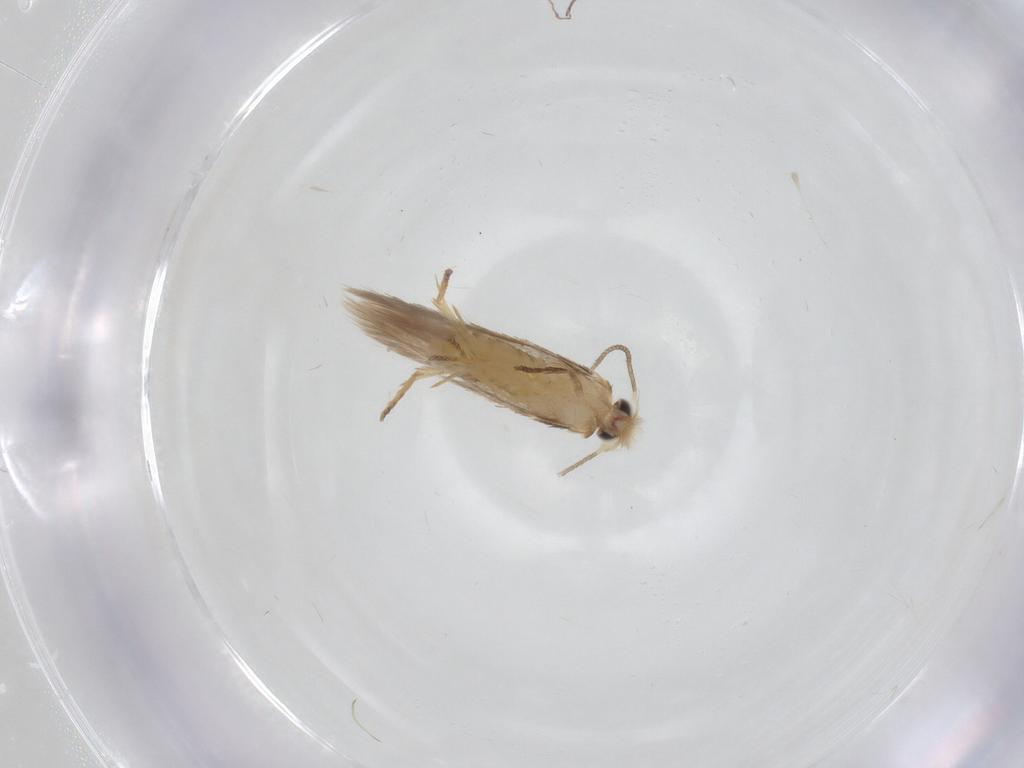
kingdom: Animalia
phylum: Arthropoda
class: Insecta
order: Lepidoptera
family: Nepticulidae
